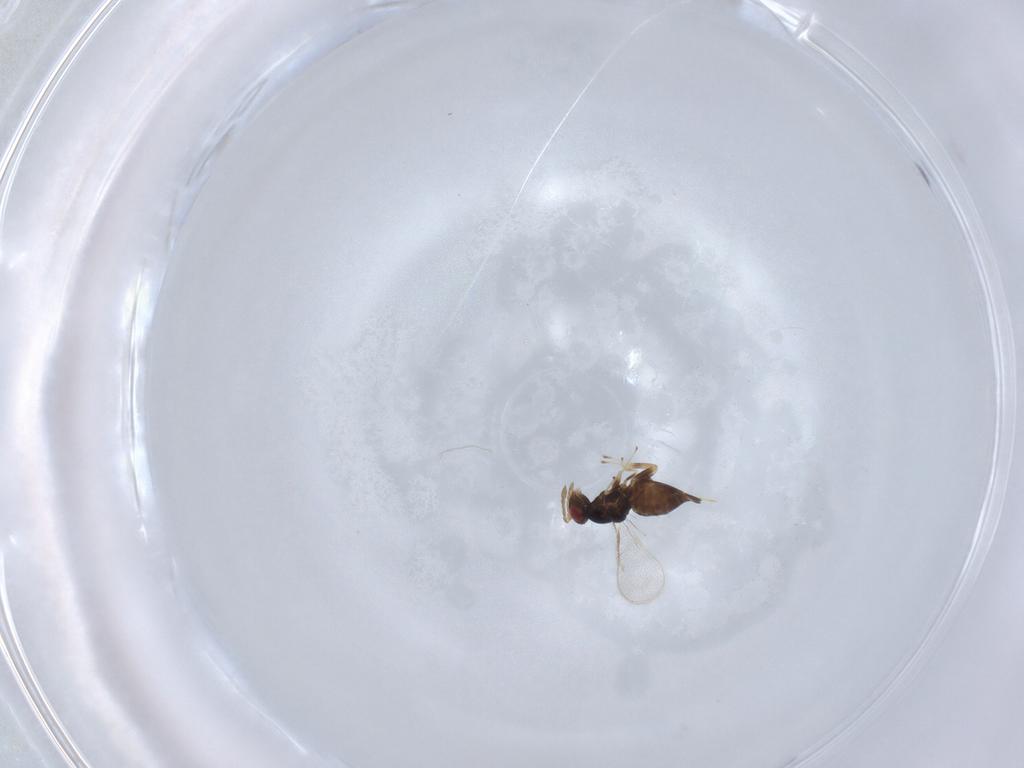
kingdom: Animalia
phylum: Arthropoda
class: Insecta
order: Hymenoptera
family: Eulophidae
